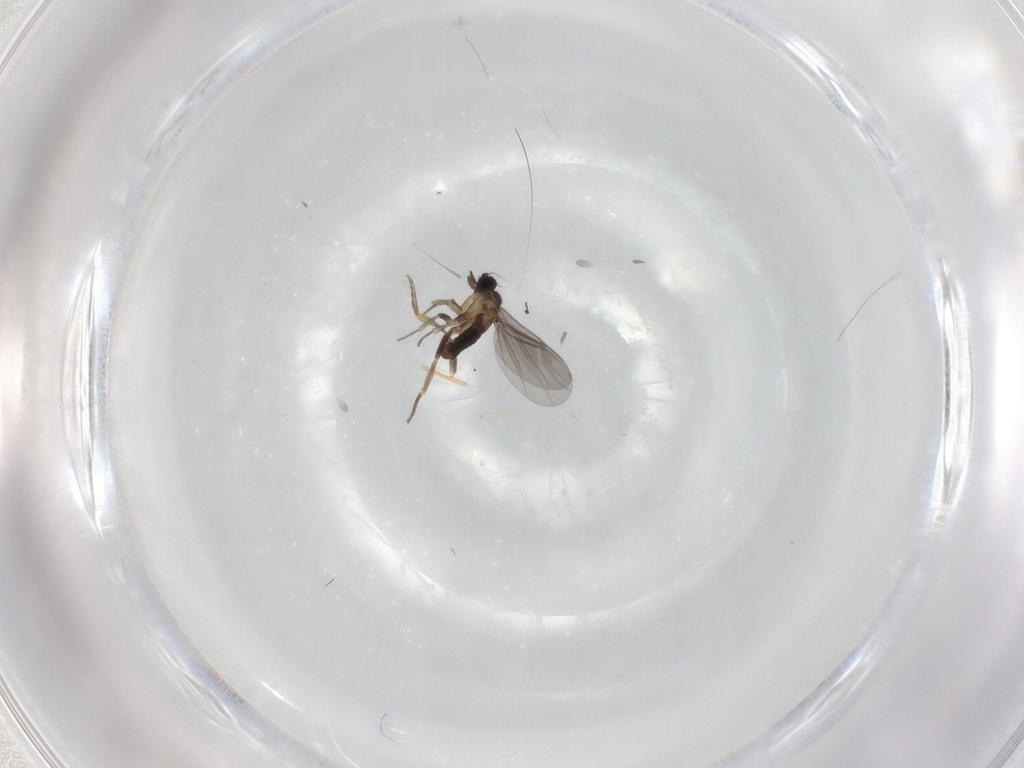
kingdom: Animalia
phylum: Arthropoda
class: Insecta
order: Diptera
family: Psychodidae
